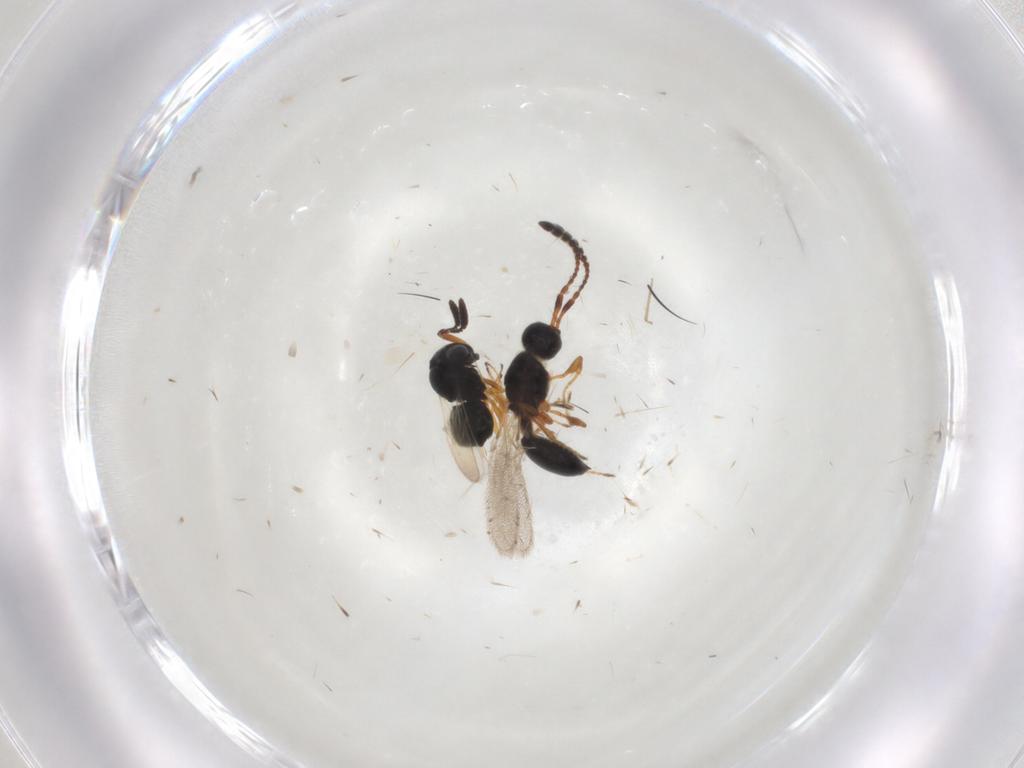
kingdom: Animalia
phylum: Arthropoda
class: Insecta
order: Hymenoptera
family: Scelionidae
